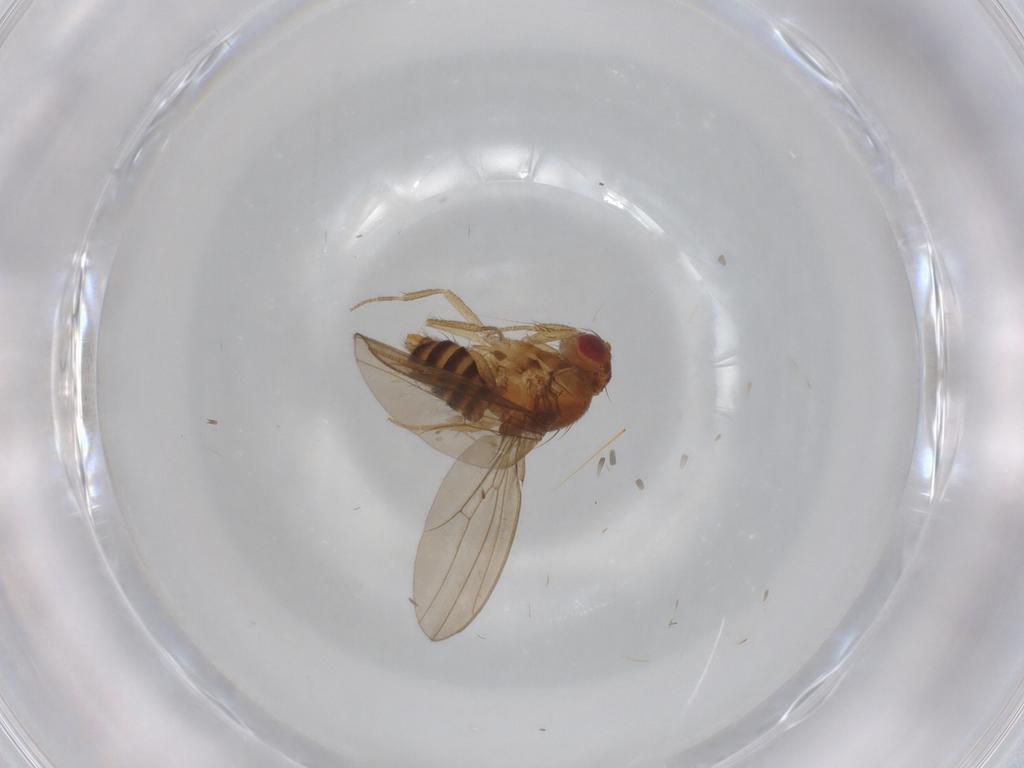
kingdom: Animalia
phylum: Arthropoda
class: Insecta
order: Diptera
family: Drosophilidae
